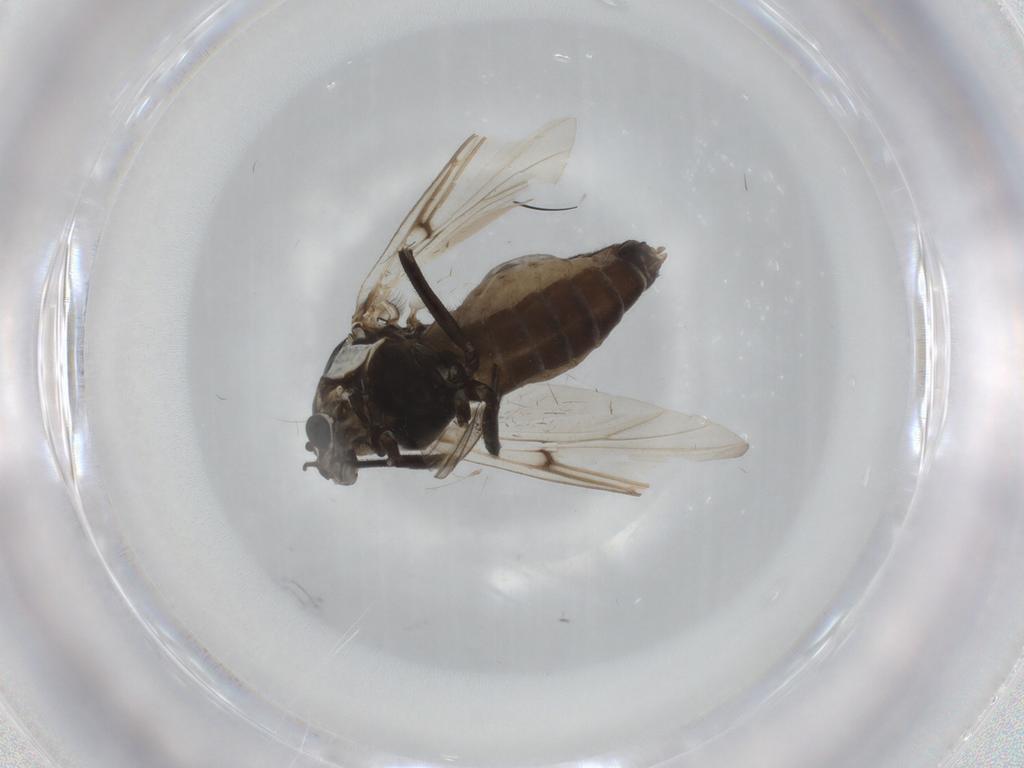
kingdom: Animalia
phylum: Arthropoda
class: Insecta
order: Diptera
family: Chironomidae
